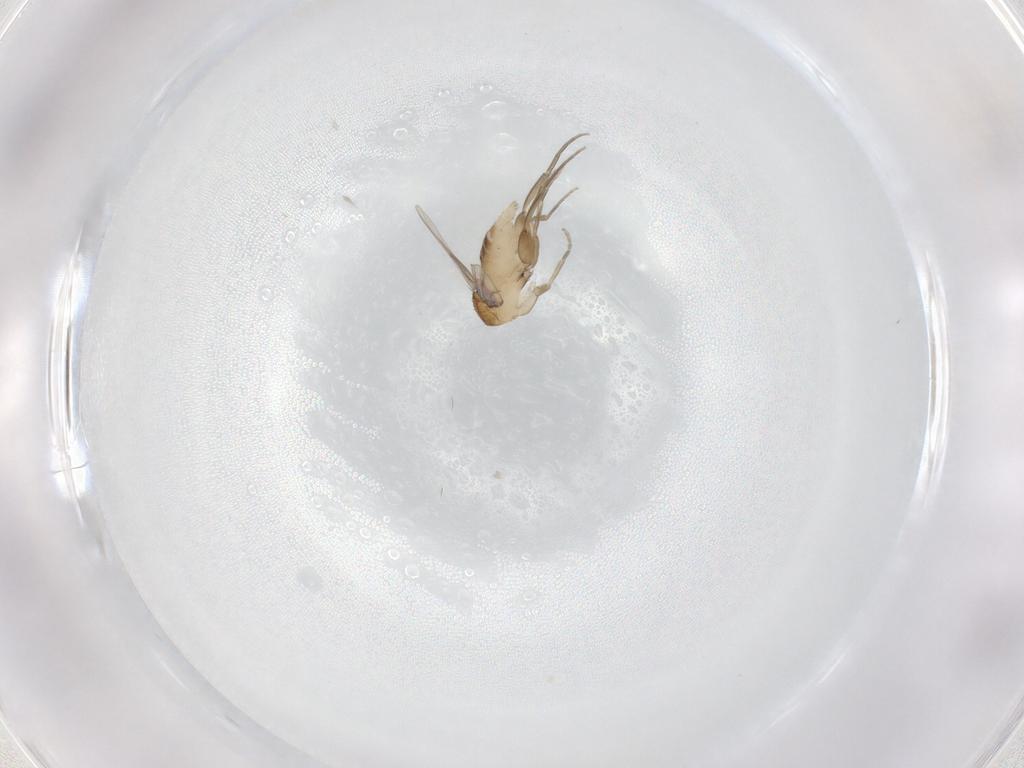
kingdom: Animalia
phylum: Arthropoda
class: Insecta
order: Diptera
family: Phoridae
